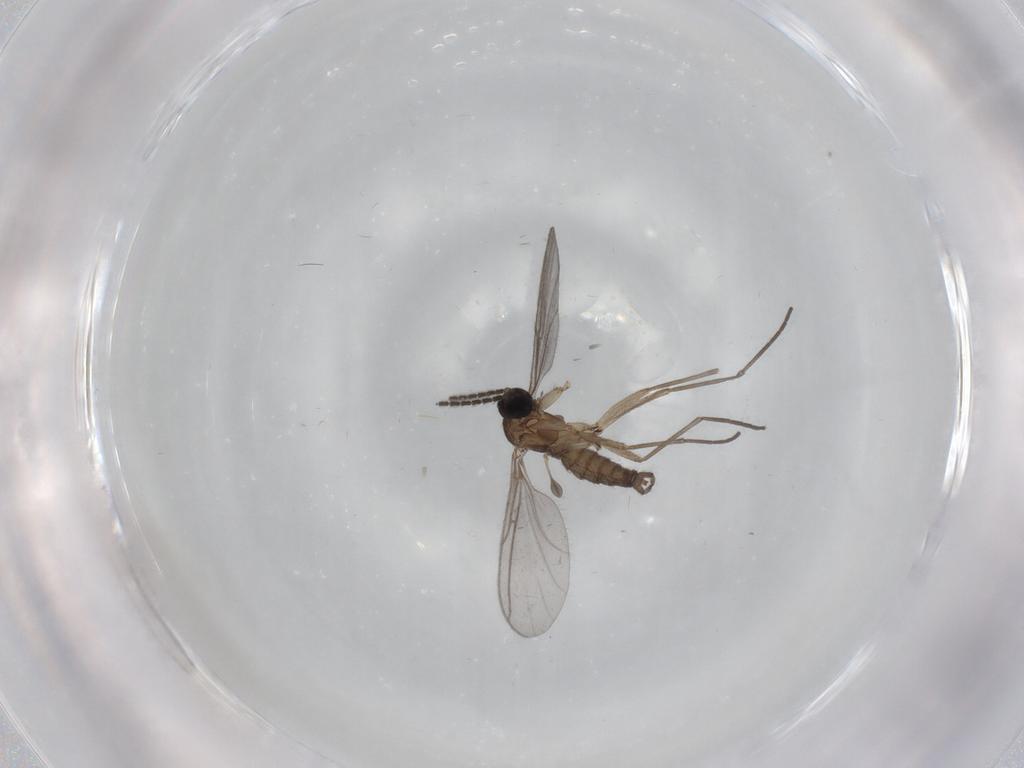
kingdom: Animalia
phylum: Arthropoda
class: Insecta
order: Diptera
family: Sciaridae
